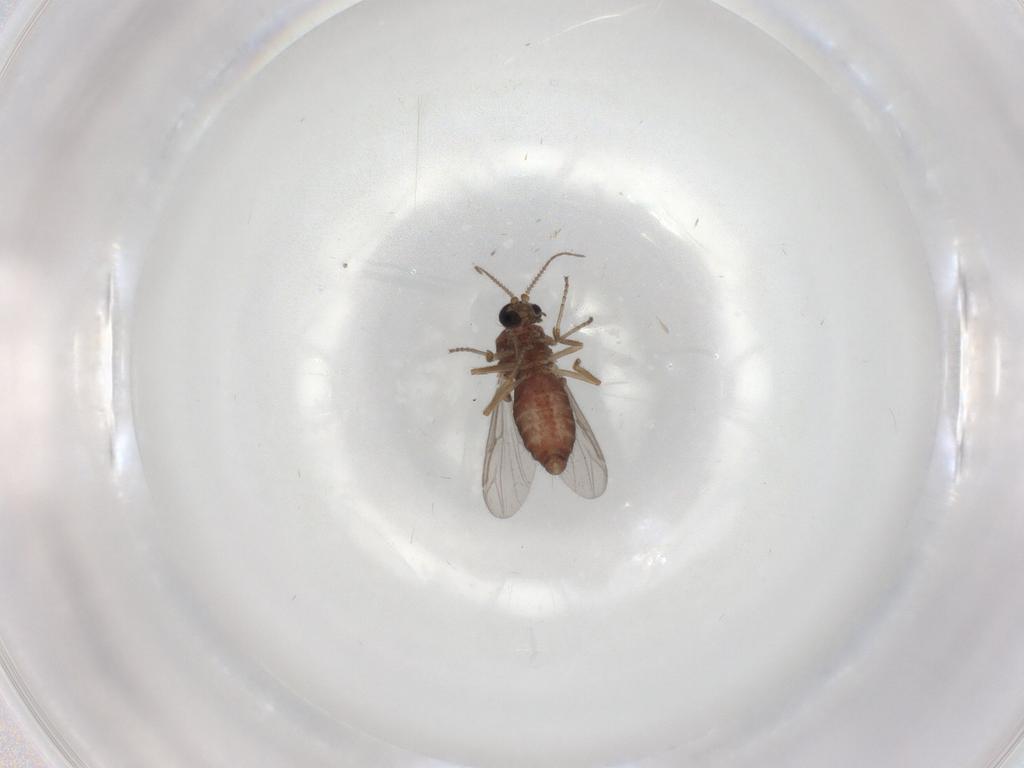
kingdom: Animalia
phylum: Arthropoda
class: Insecta
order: Diptera
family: Ceratopogonidae
